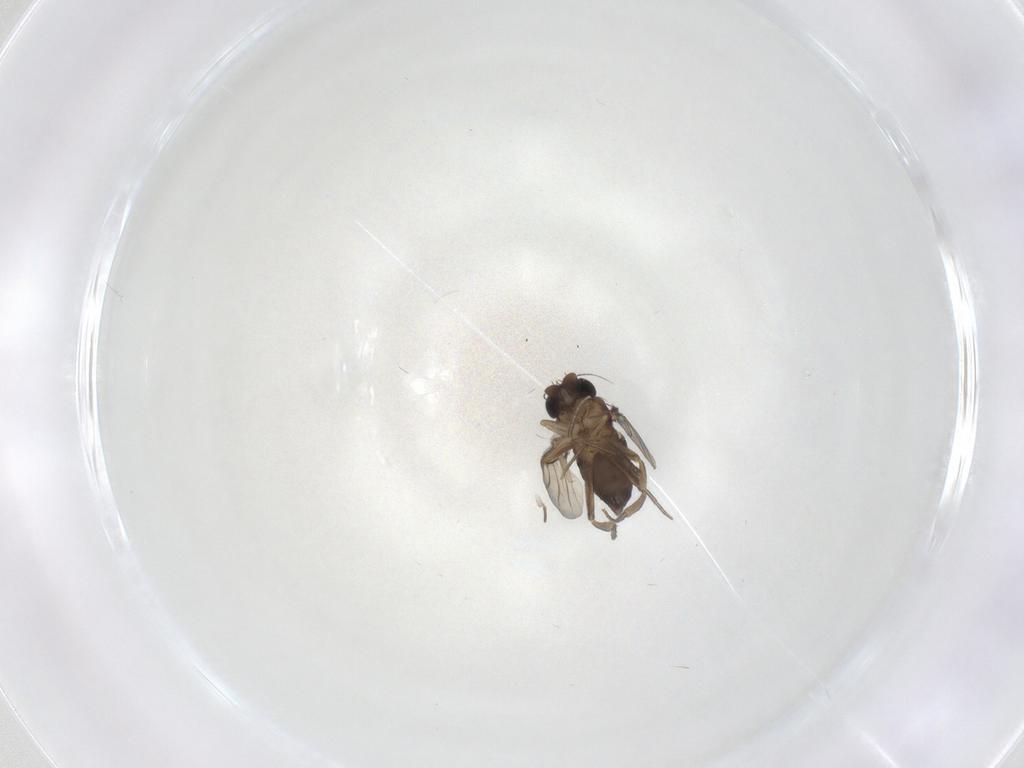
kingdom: Animalia
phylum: Arthropoda
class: Insecta
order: Diptera
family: Phoridae
